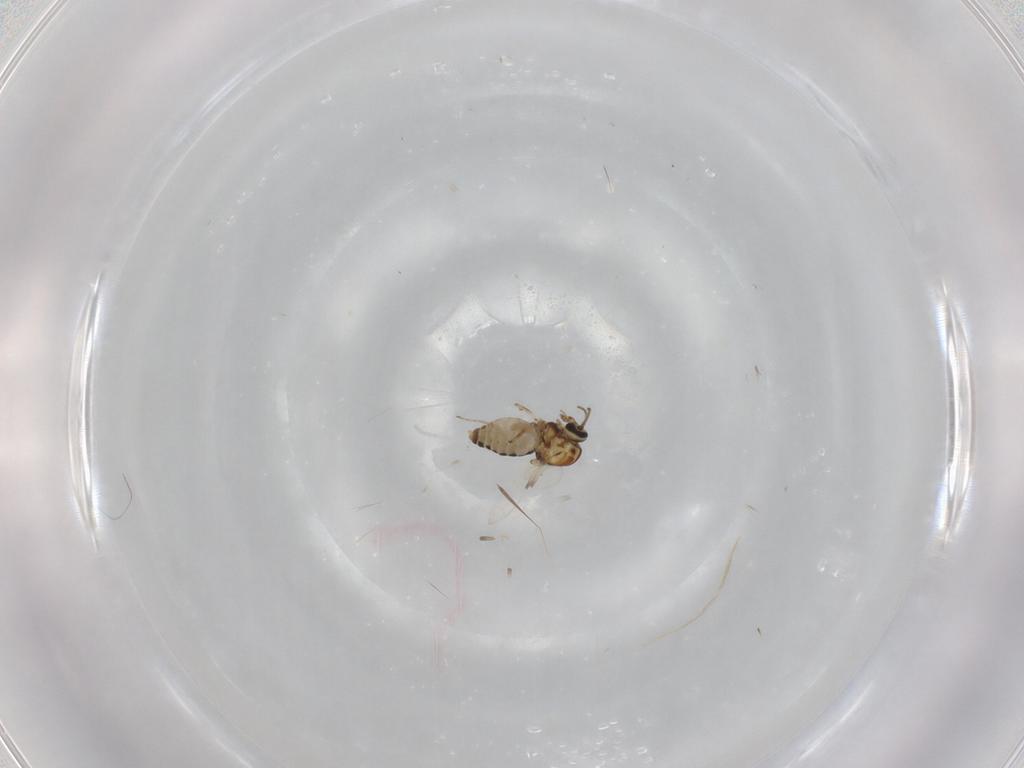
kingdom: Animalia
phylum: Arthropoda
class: Insecta
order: Diptera
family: Ceratopogonidae
